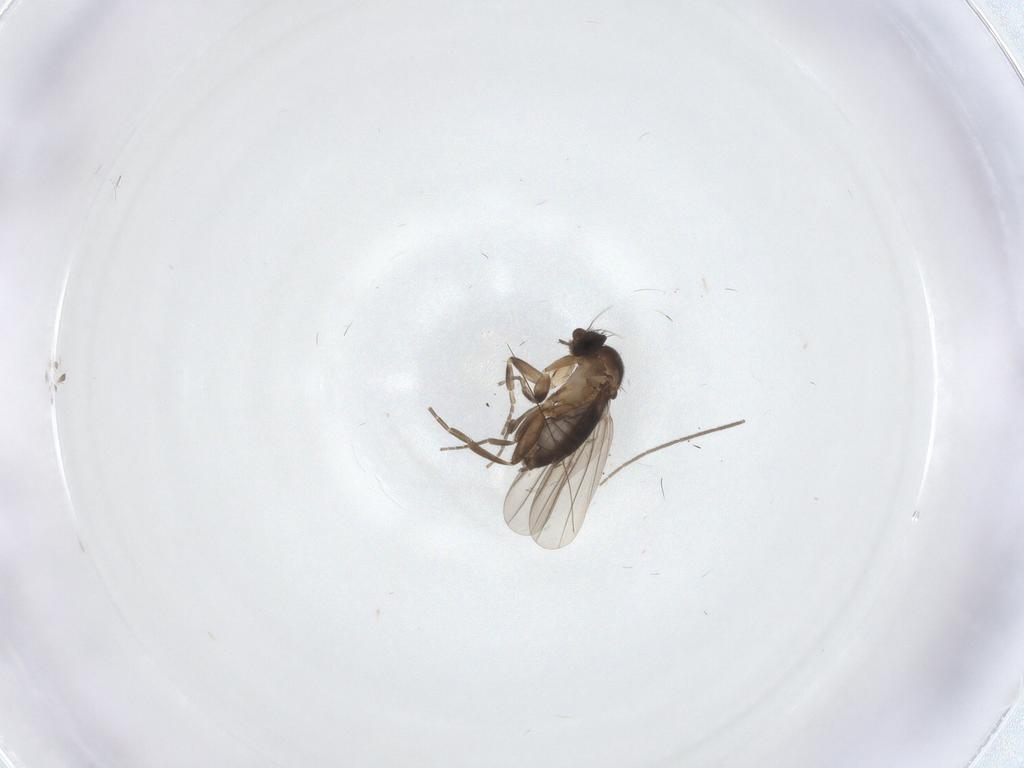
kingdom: Animalia
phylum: Arthropoda
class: Insecta
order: Diptera
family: Chironomidae
